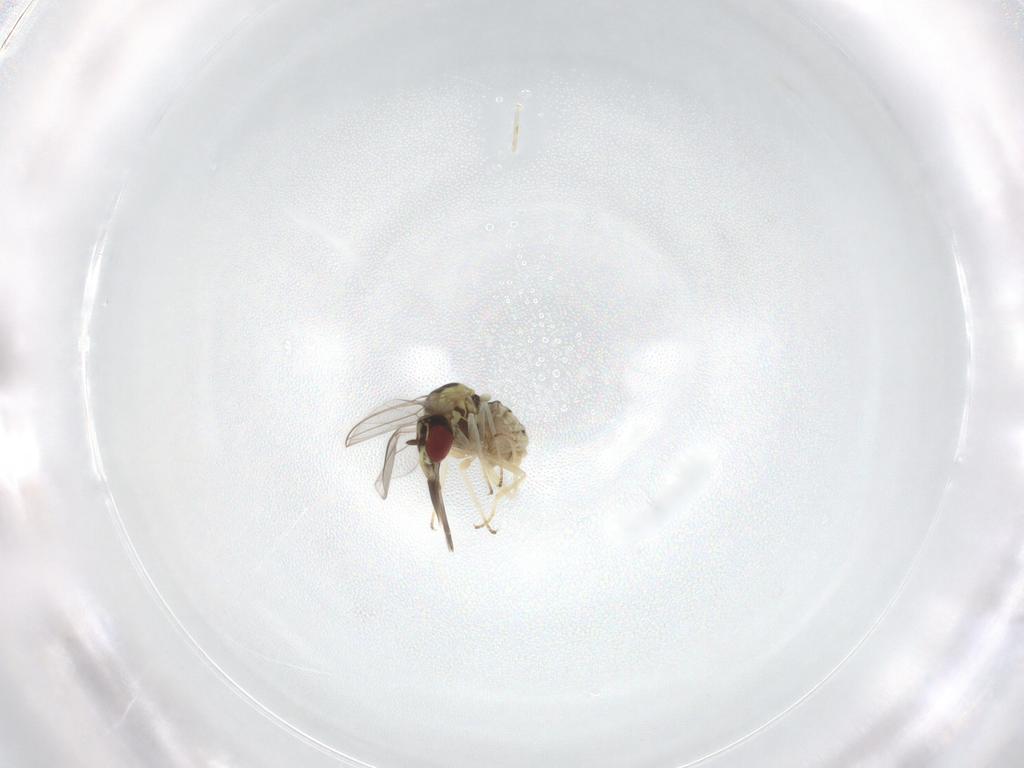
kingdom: Animalia
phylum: Arthropoda
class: Insecta
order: Diptera
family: Bombyliidae
